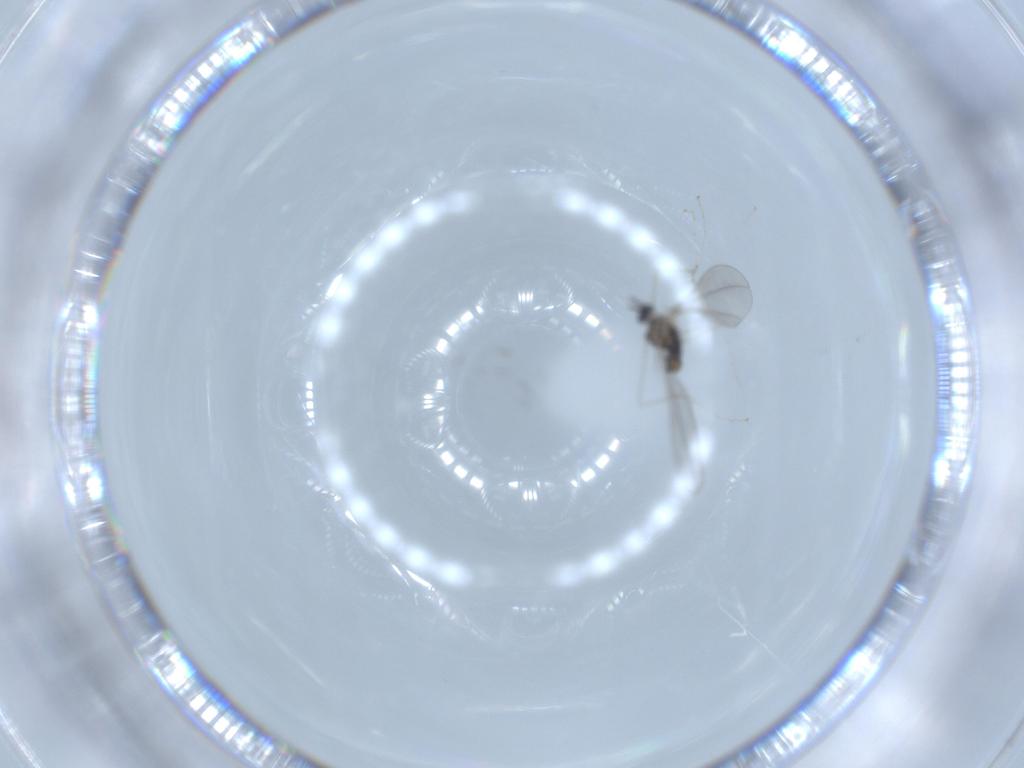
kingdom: Animalia
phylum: Arthropoda
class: Insecta
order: Diptera
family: Cecidomyiidae
